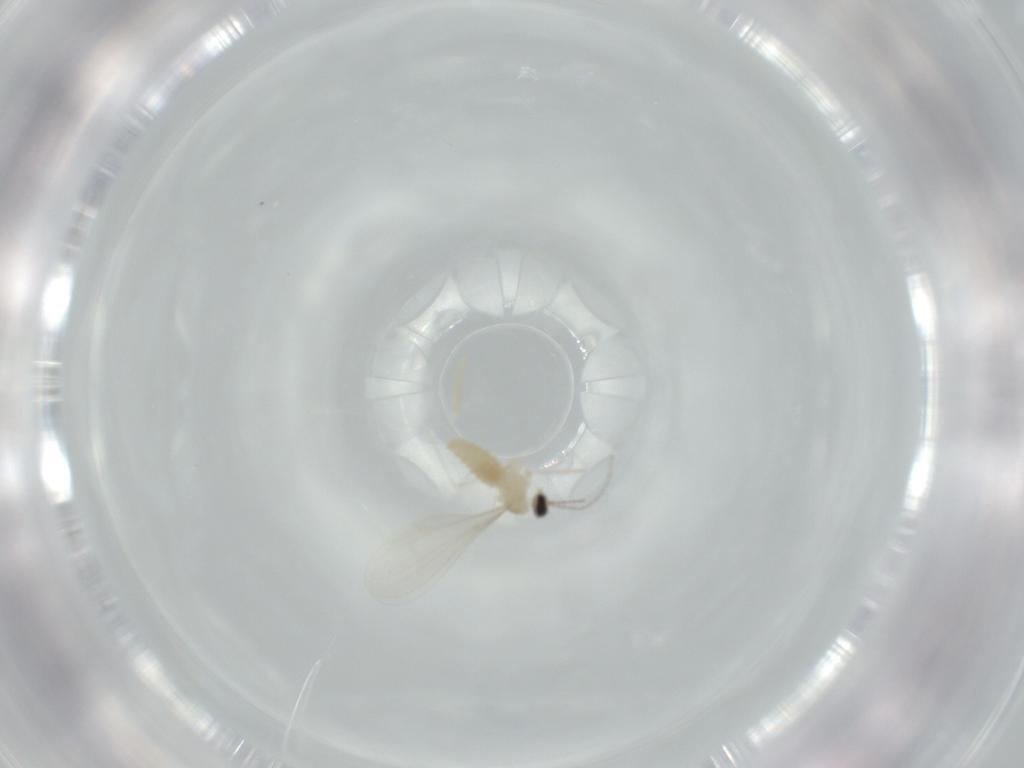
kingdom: Animalia
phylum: Arthropoda
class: Insecta
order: Diptera
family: Cecidomyiidae
